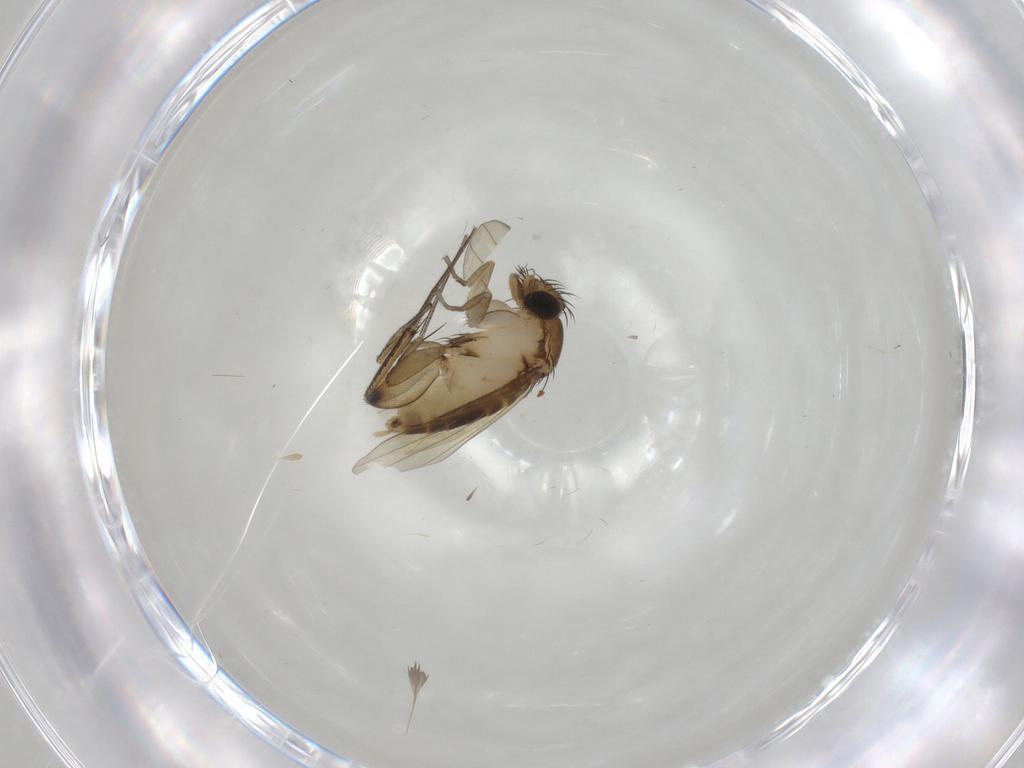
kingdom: Animalia
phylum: Arthropoda
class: Insecta
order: Diptera
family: Phoridae
